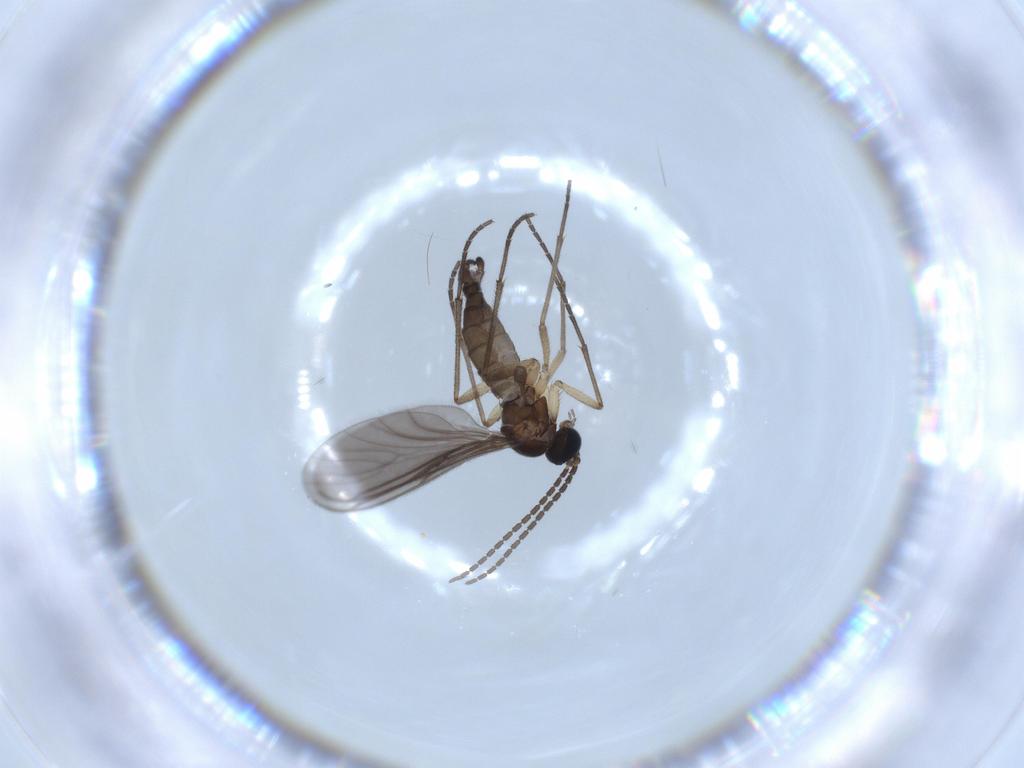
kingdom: Animalia
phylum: Arthropoda
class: Insecta
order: Diptera
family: Sciaridae
